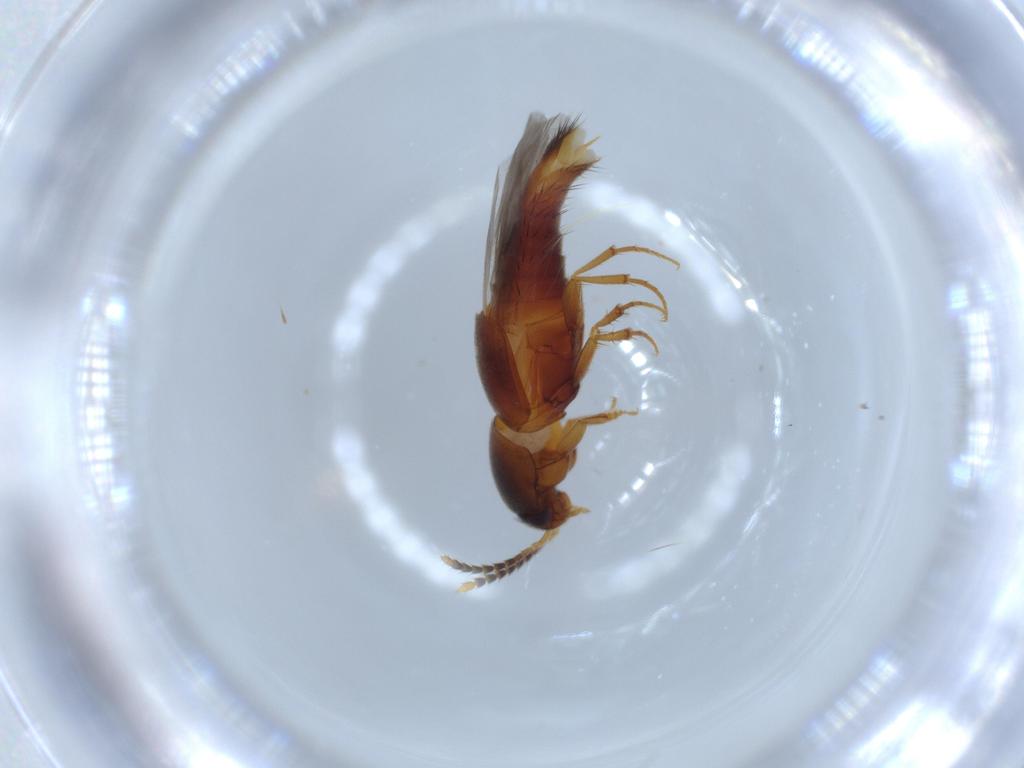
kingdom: Animalia
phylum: Arthropoda
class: Insecta
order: Coleoptera
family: Staphylinidae
